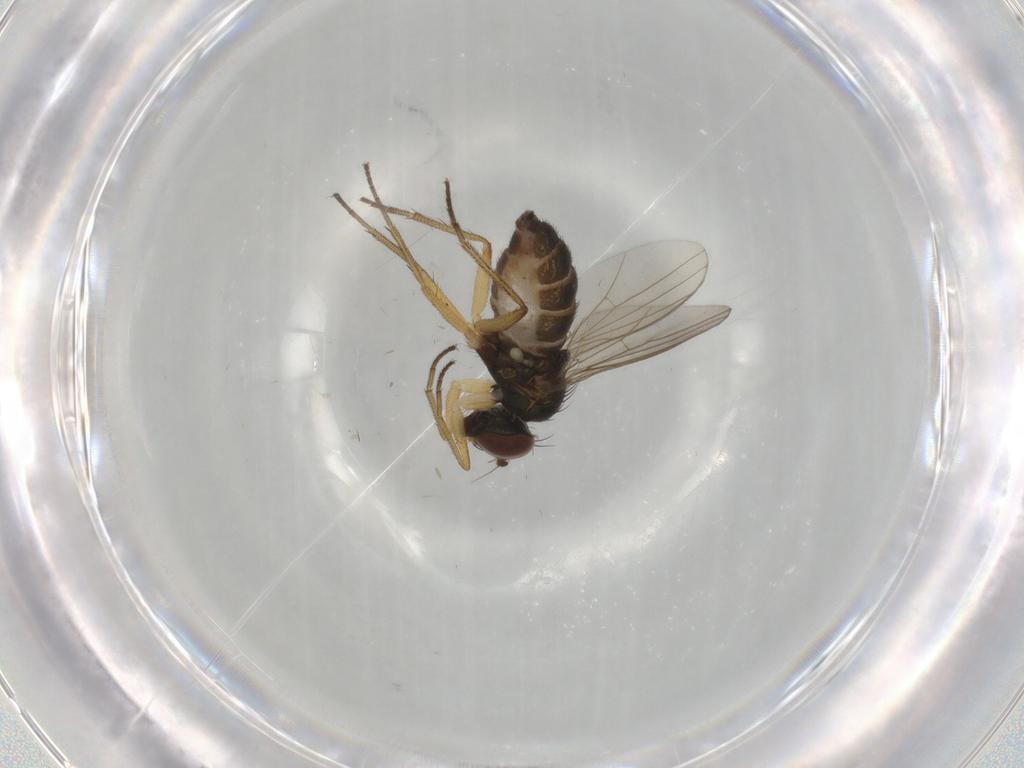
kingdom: Animalia
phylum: Arthropoda
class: Insecta
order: Diptera
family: Dolichopodidae
